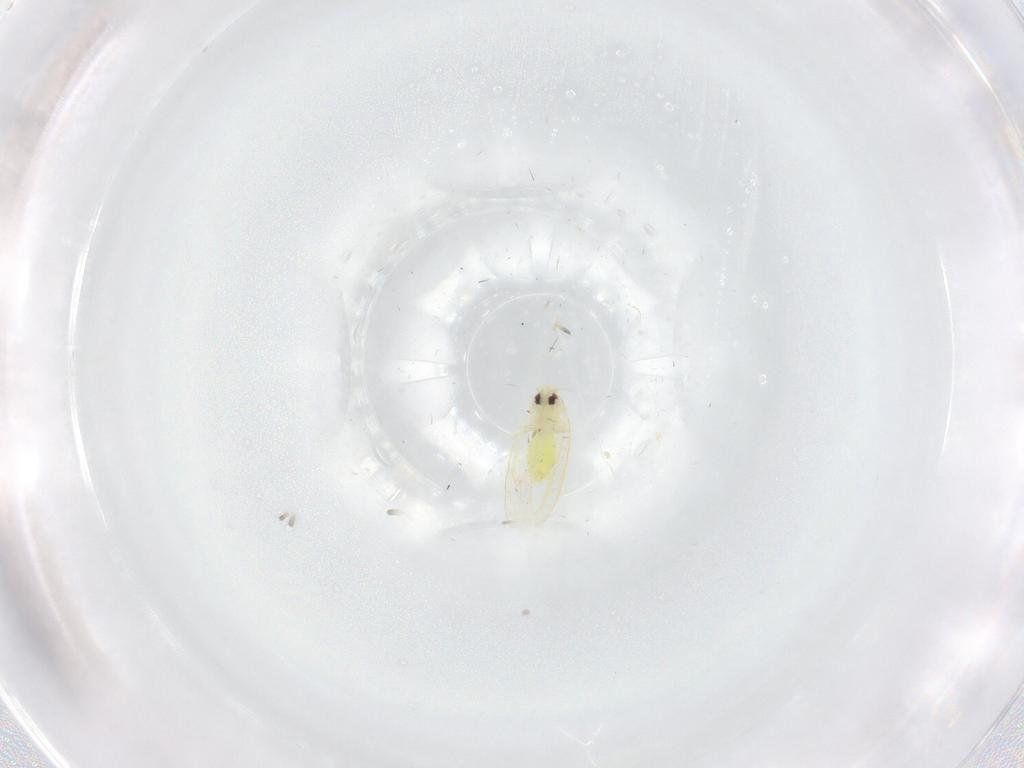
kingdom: Animalia
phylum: Arthropoda
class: Insecta
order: Hemiptera
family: Aleyrodidae
